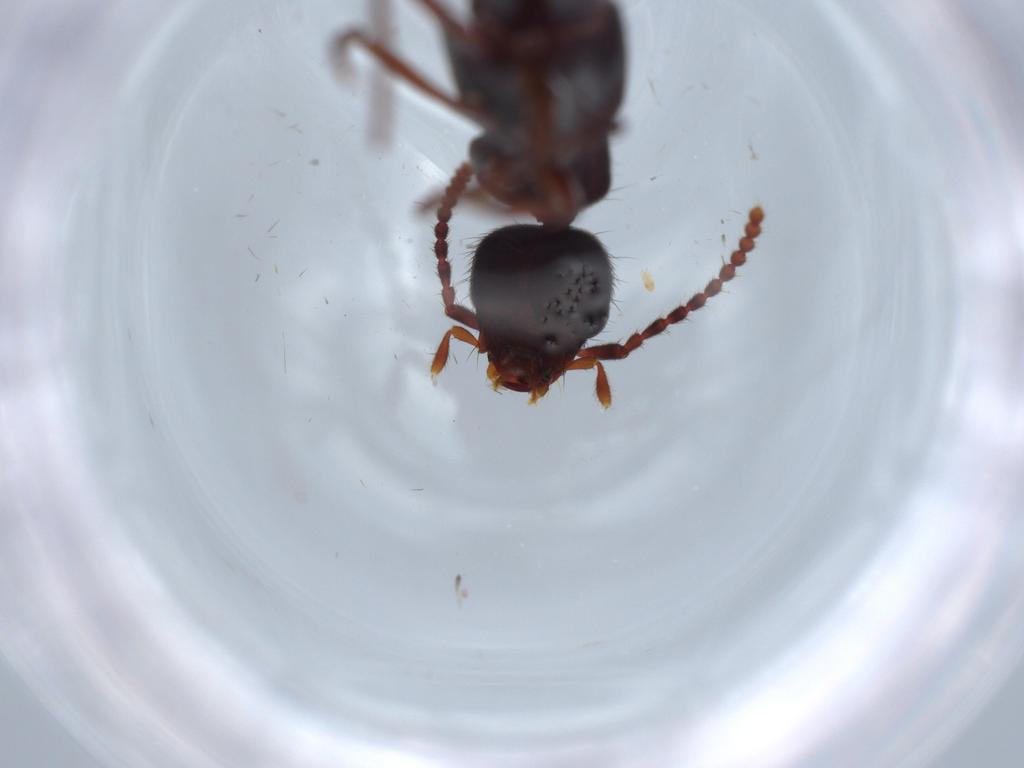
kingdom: Animalia
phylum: Arthropoda
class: Insecta
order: Coleoptera
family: Staphylinidae
